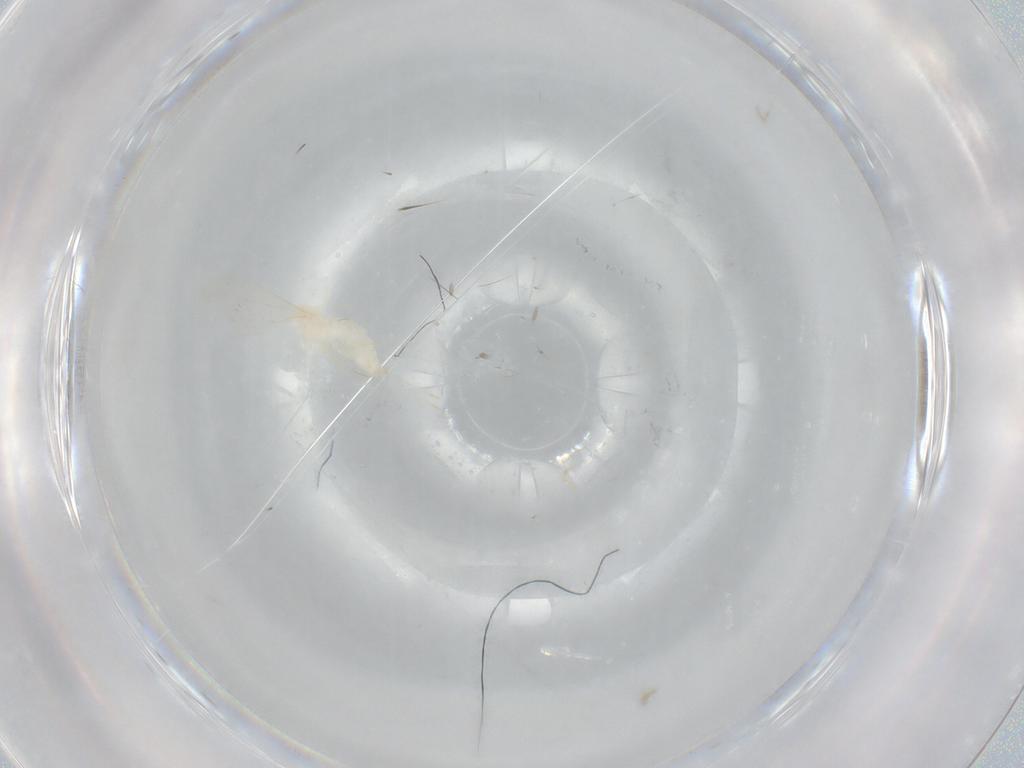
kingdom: Animalia
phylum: Arthropoda
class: Insecta
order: Diptera
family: Cecidomyiidae
